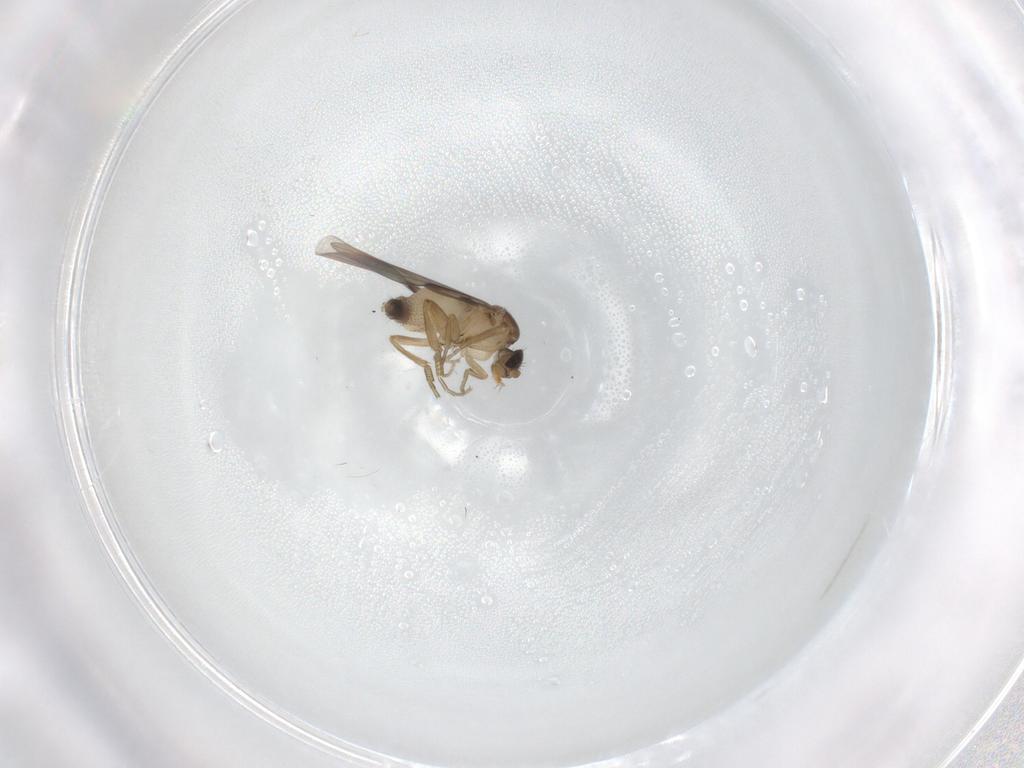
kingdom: Animalia
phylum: Arthropoda
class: Insecta
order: Diptera
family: Phoridae
